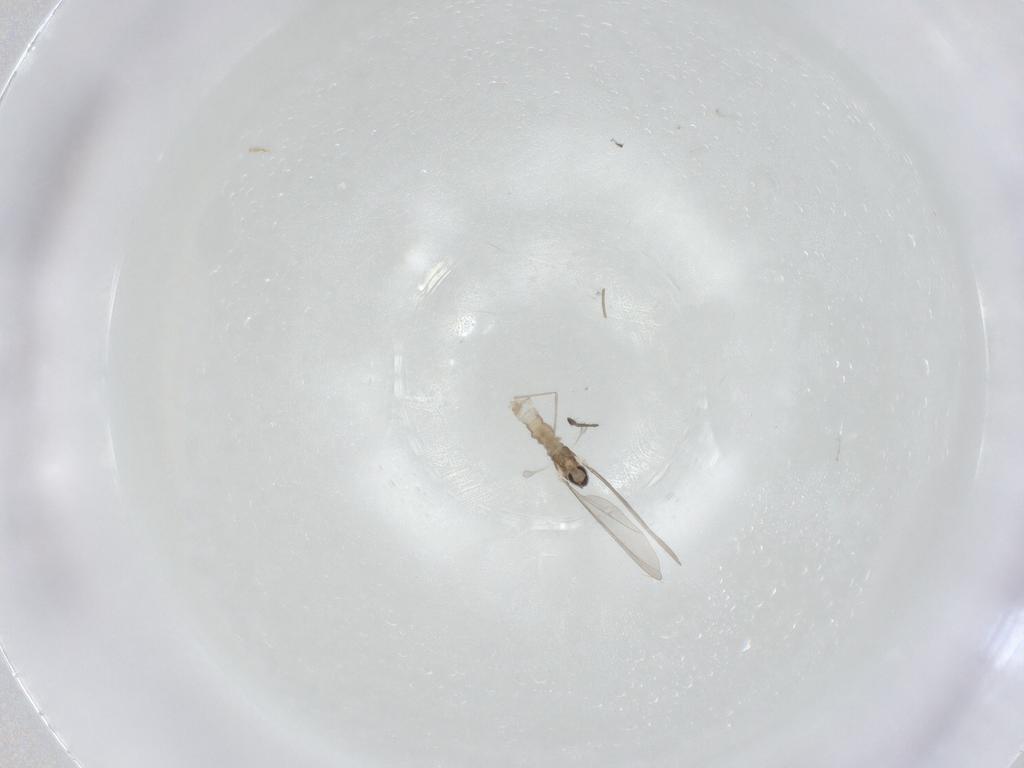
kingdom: Animalia
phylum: Arthropoda
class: Insecta
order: Diptera
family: Cecidomyiidae
